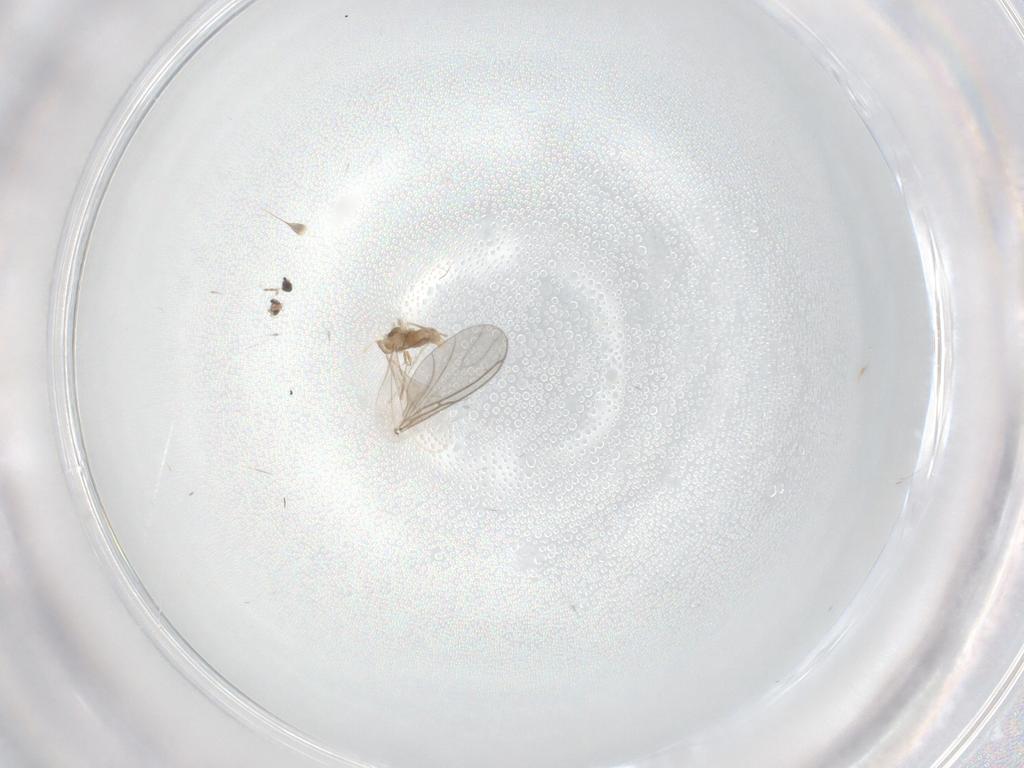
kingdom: Animalia
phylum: Arthropoda
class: Insecta
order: Diptera
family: Cecidomyiidae
